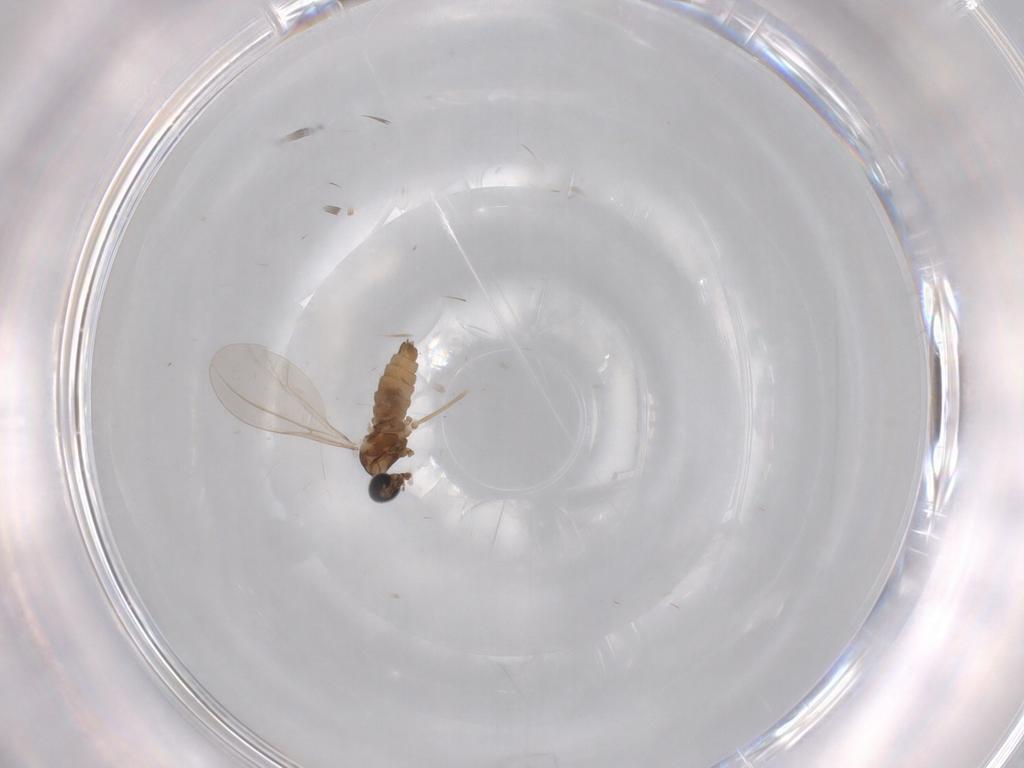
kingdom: Animalia
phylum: Arthropoda
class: Insecta
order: Diptera
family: Cecidomyiidae
